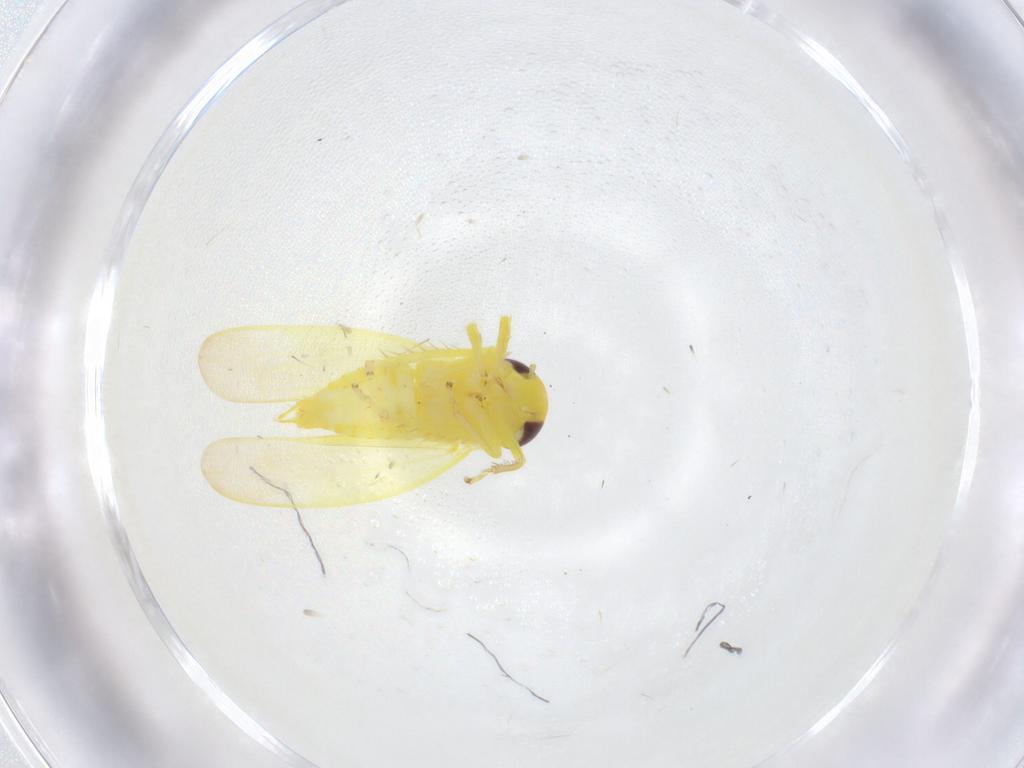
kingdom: Animalia
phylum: Arthropoda
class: Insecta
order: Hemiptera
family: Cicadellidae
